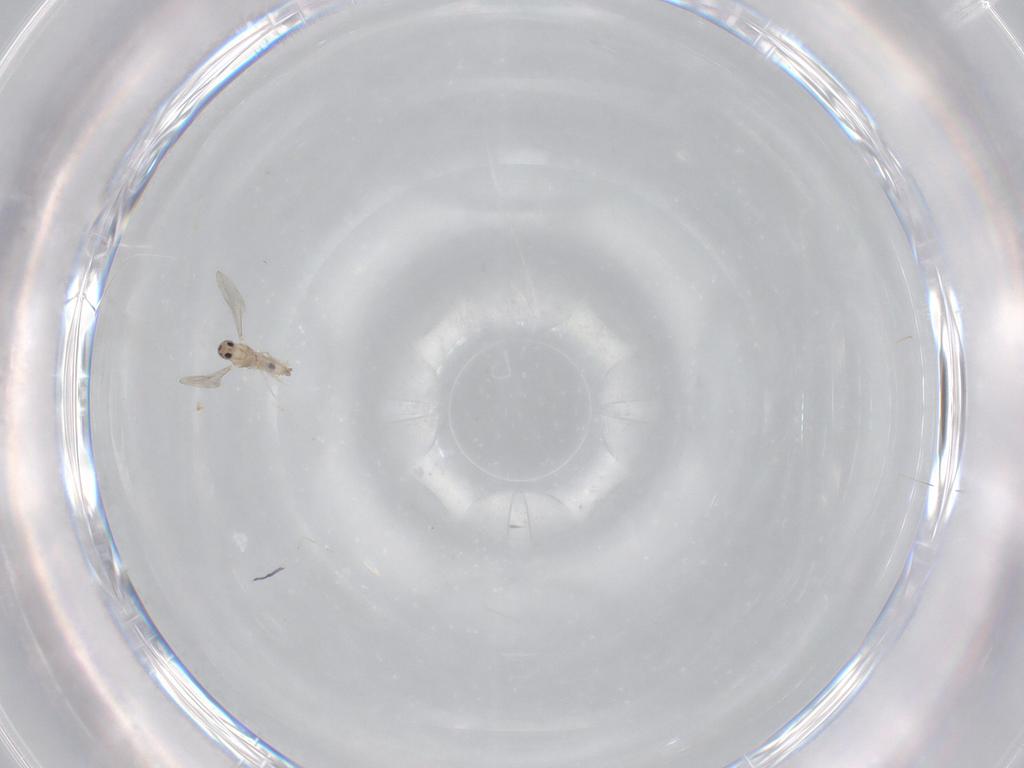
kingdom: Animalia
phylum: Arthropoda
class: Insecta
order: Diptera
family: Cecidomyiidae
